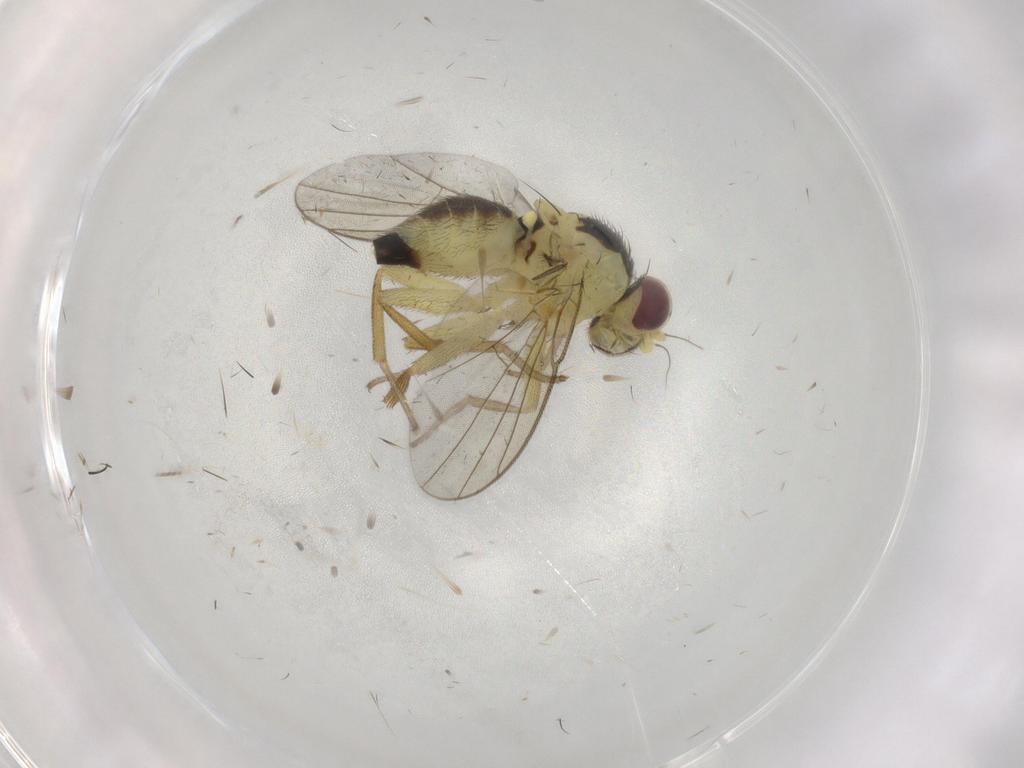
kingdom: Animalia
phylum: Arthropoda
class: Insecta
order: Diptera
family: Agromyzidae
